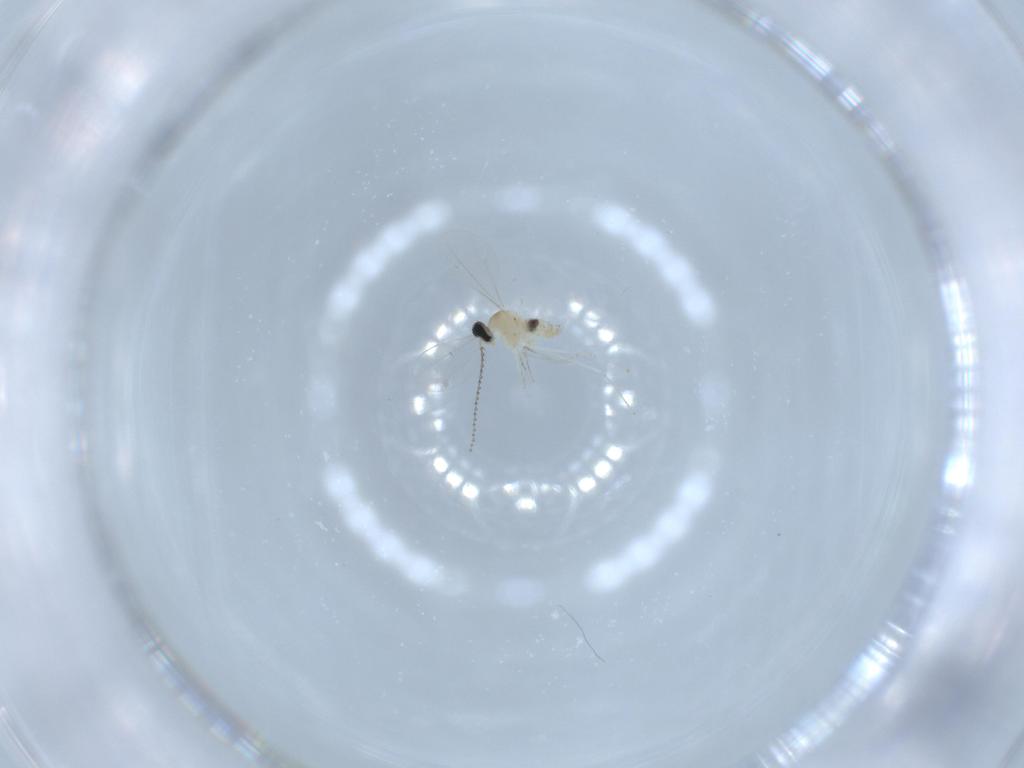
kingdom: Animalia
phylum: Arthropoda
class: Insecta
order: Diptera
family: Cecidomyiidae
